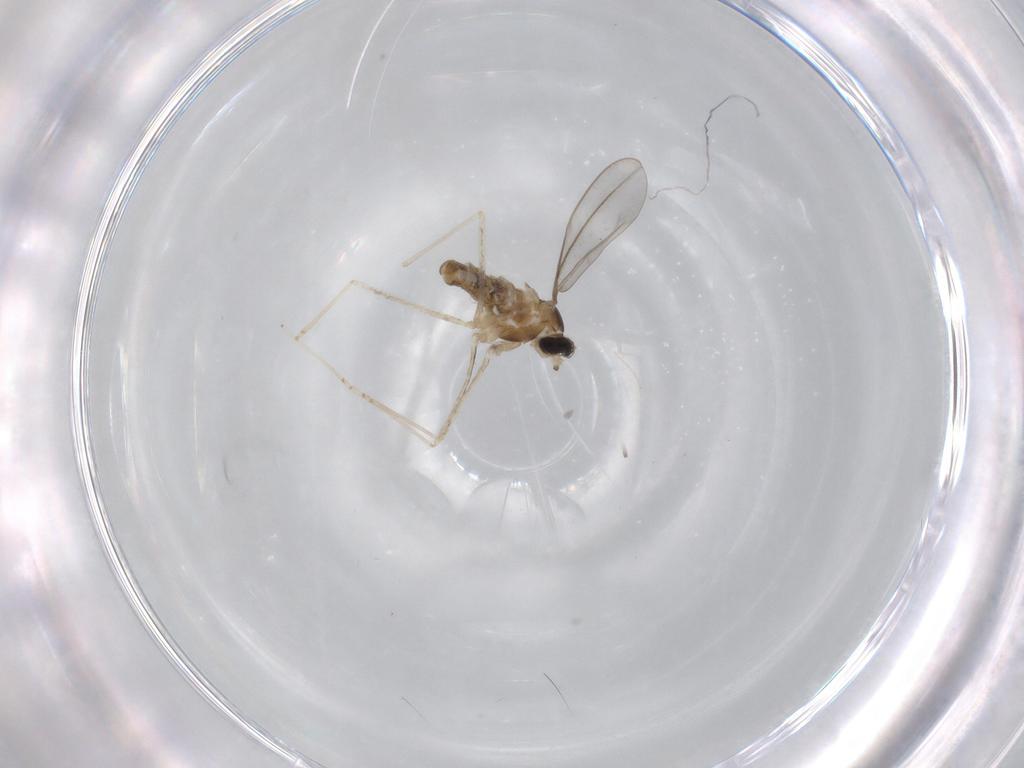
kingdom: Animalia
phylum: Arthropoda
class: Insecta
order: Diptera
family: Cecidomyiidae
